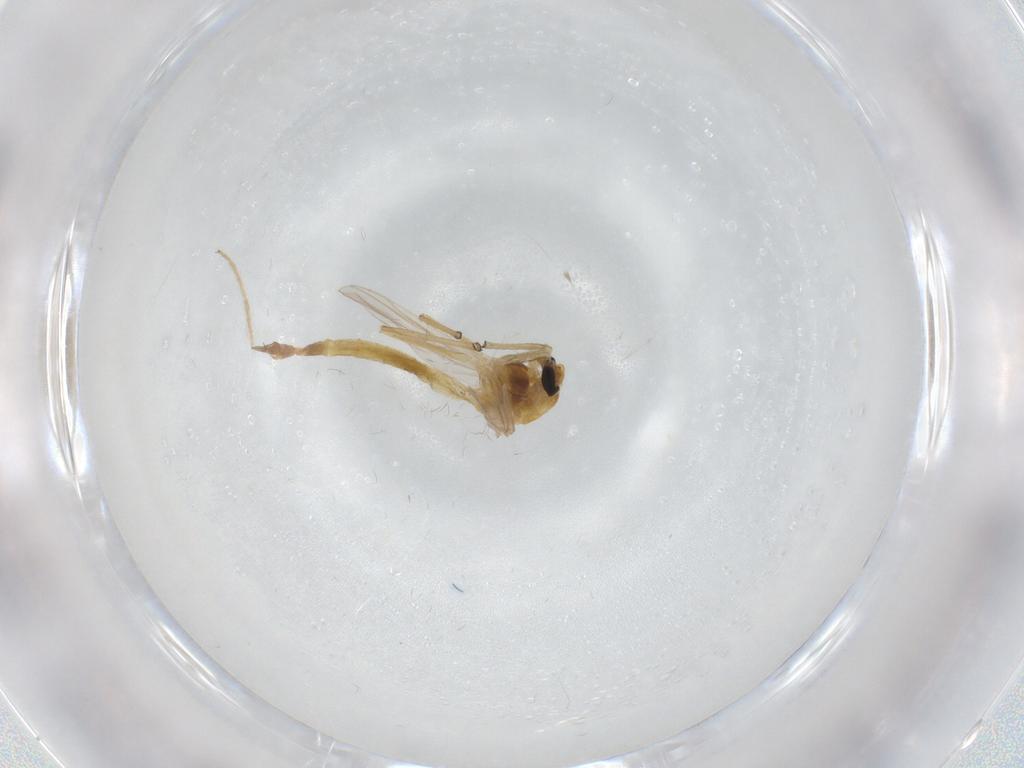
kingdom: Animalia
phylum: Arthropoda
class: Insecta
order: Diptera
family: Chironomidae
